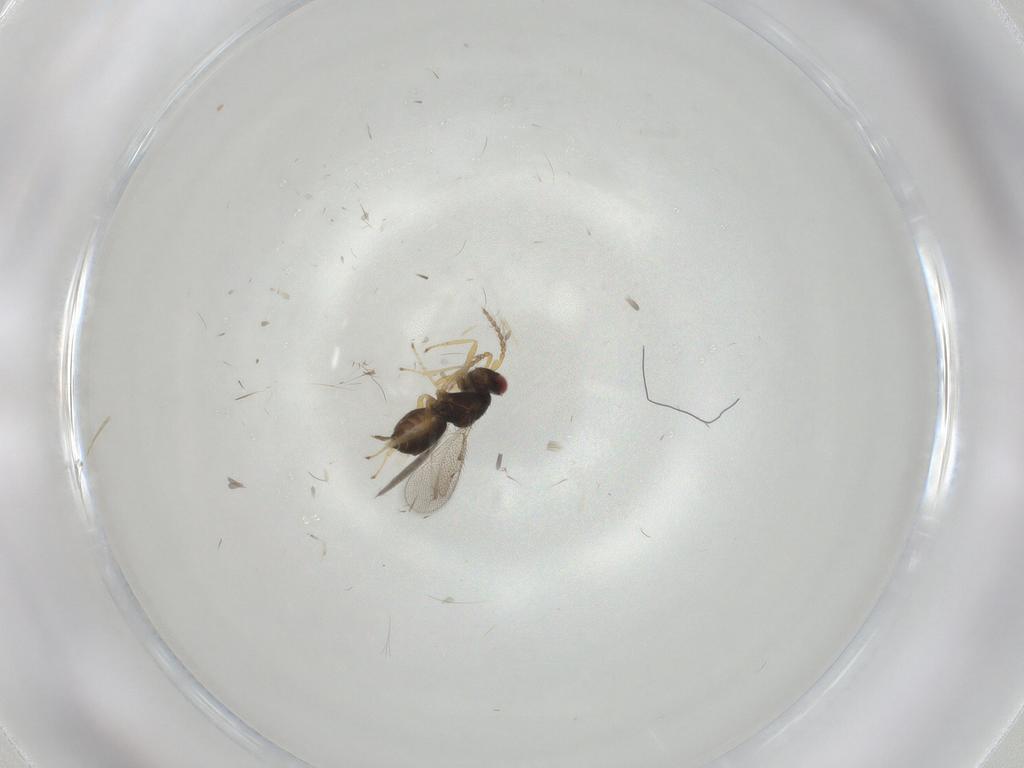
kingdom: Animalia
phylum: Arthropoda
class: Insecta
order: Hymenoptera
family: Eulophidae
